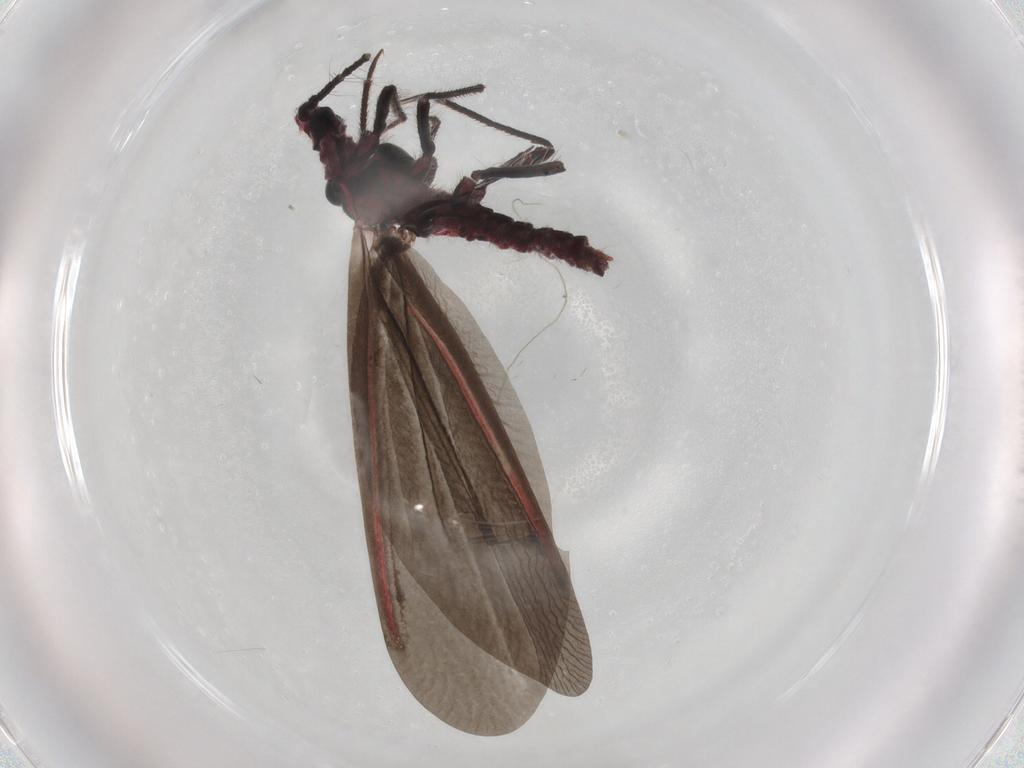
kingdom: Animalia
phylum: Arthropoda
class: Insecta
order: Hemiptera
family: Monophlebidae
